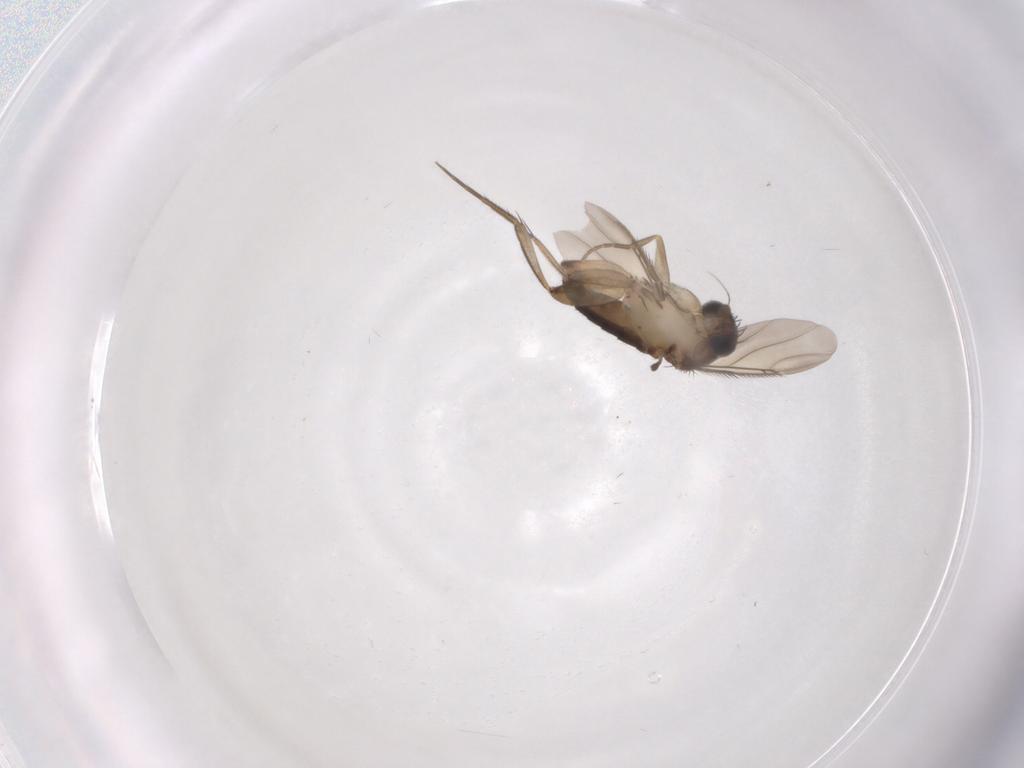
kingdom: Animalia
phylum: Arthropoda
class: Insecta
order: Diptera
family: Phoridae
